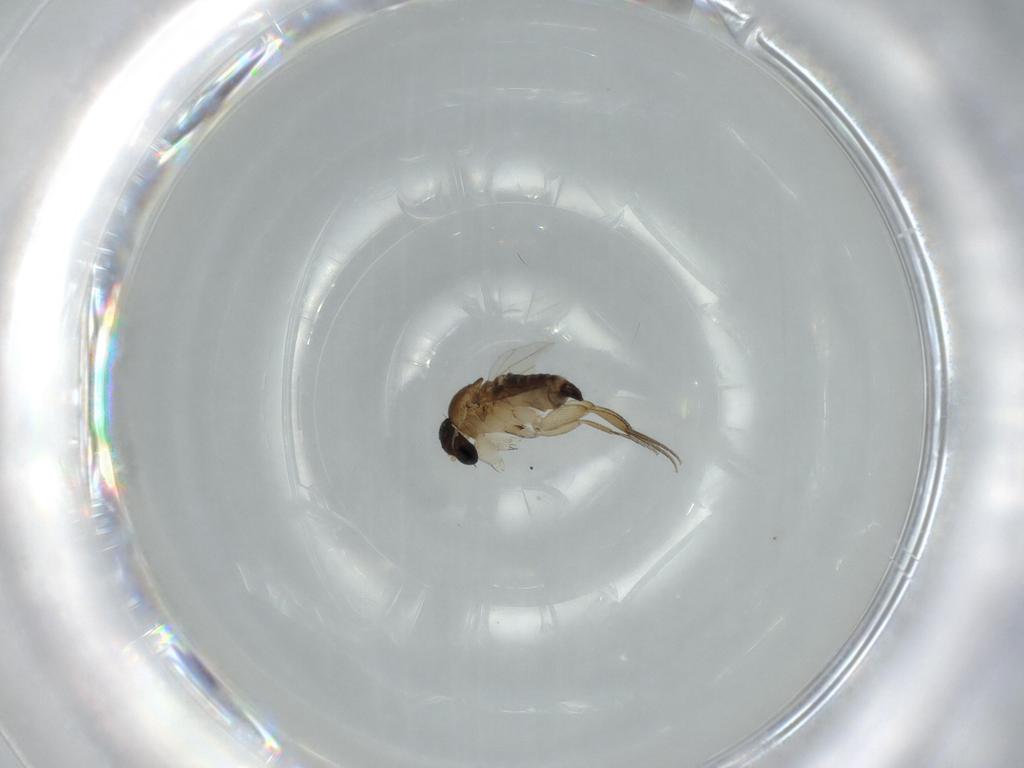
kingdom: Animalia
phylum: Arthropoda
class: Insecta
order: Diptera
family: Phoridae
